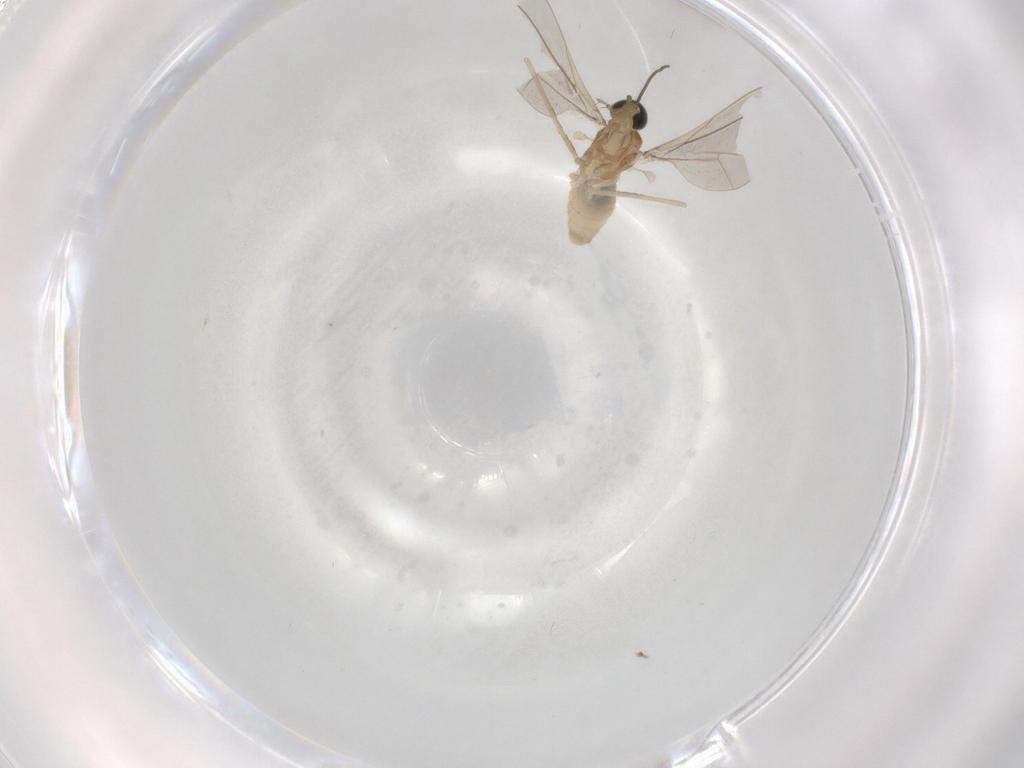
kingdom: Animalia
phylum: Arthropoda
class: Insecta
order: Diptera
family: Cecidomyiidae
